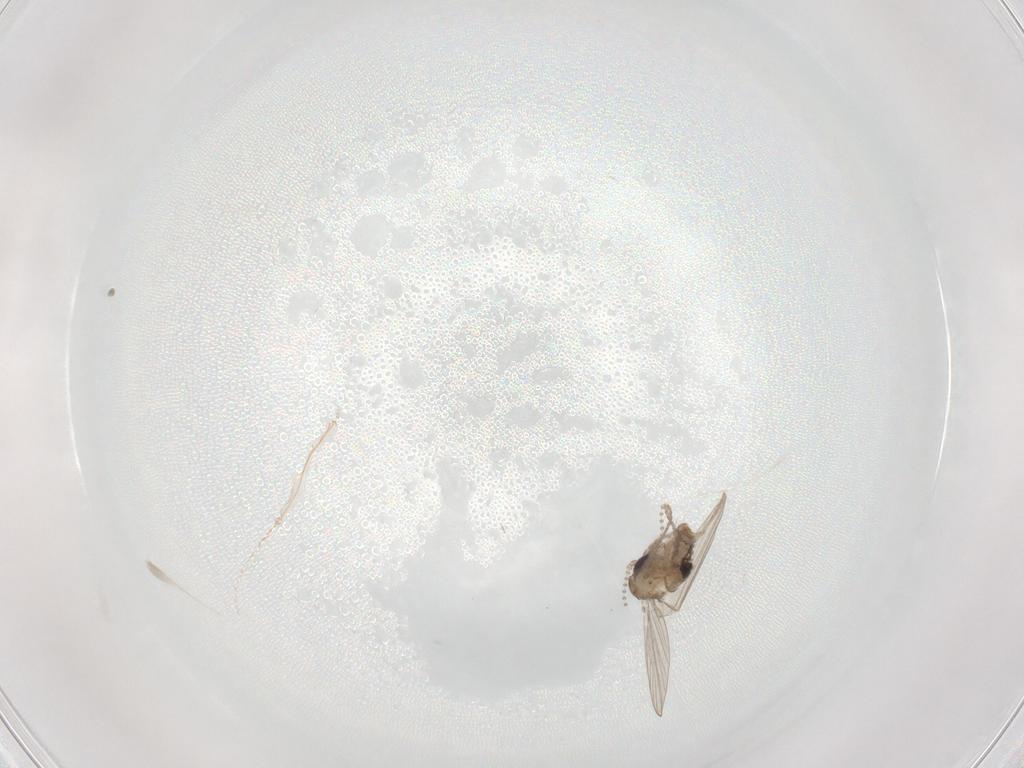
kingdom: Animalia
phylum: Arthropoda
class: Insecta
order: Diptera
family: Psychodidae
